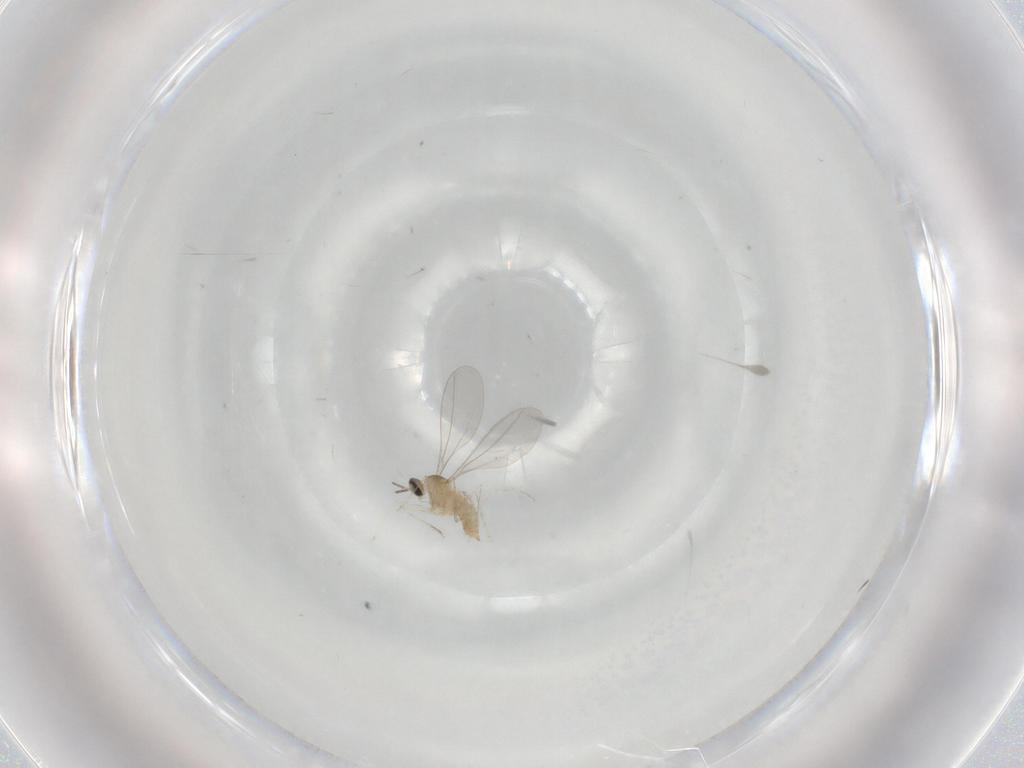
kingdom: Animalia
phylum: Arthropoda
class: Insecta
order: Diptera
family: Cecidomyiidae
